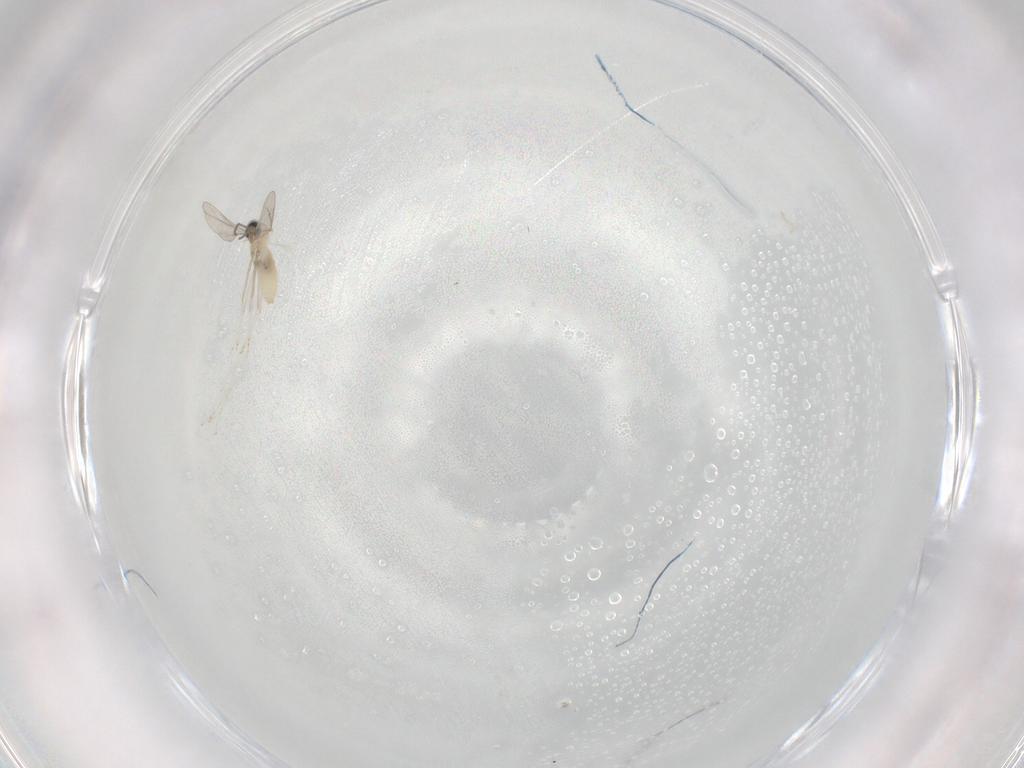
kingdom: Animalia
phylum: Arthropoda
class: Insecta
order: Diptera
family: Cecidomyiidae
